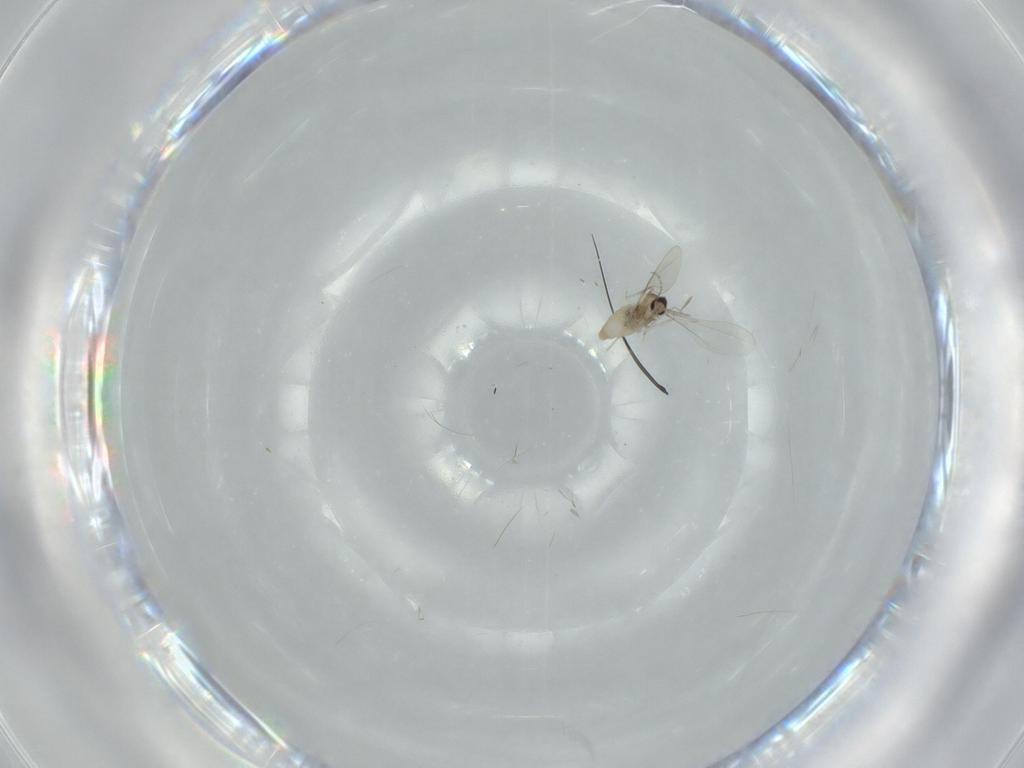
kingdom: Animalia
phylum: Arthropoda
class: Insecta
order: Diptera
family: Cecidomyiidae
